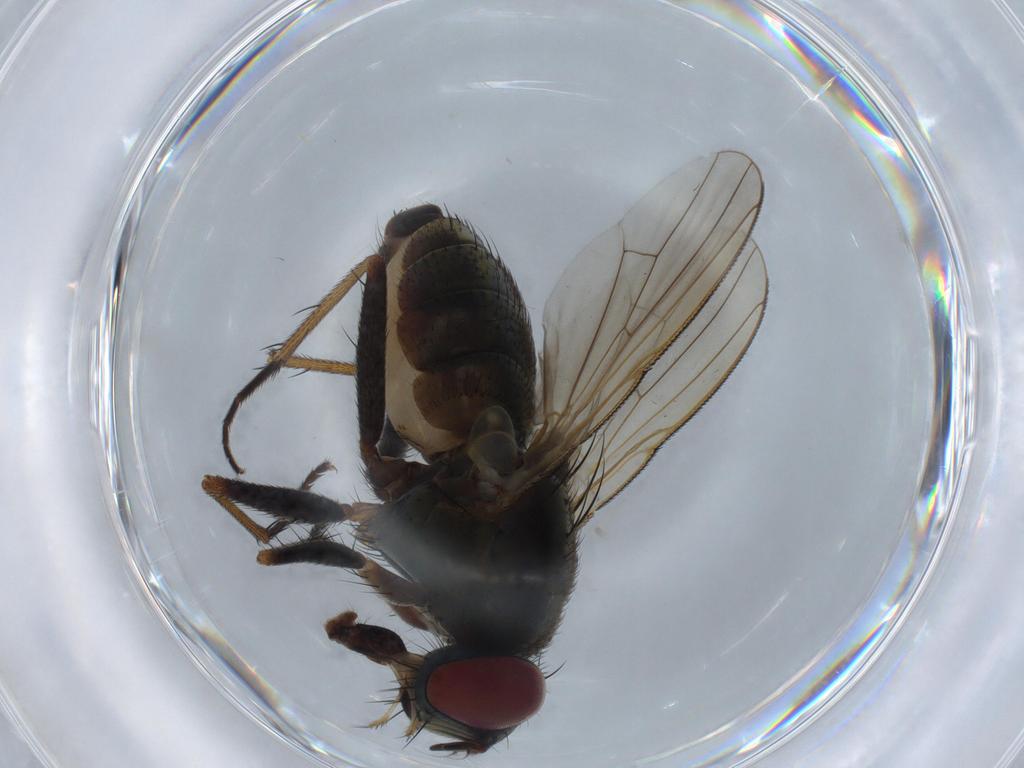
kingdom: Animalia
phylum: Arthropoda
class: Insecta
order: Diptera
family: Muscidae
